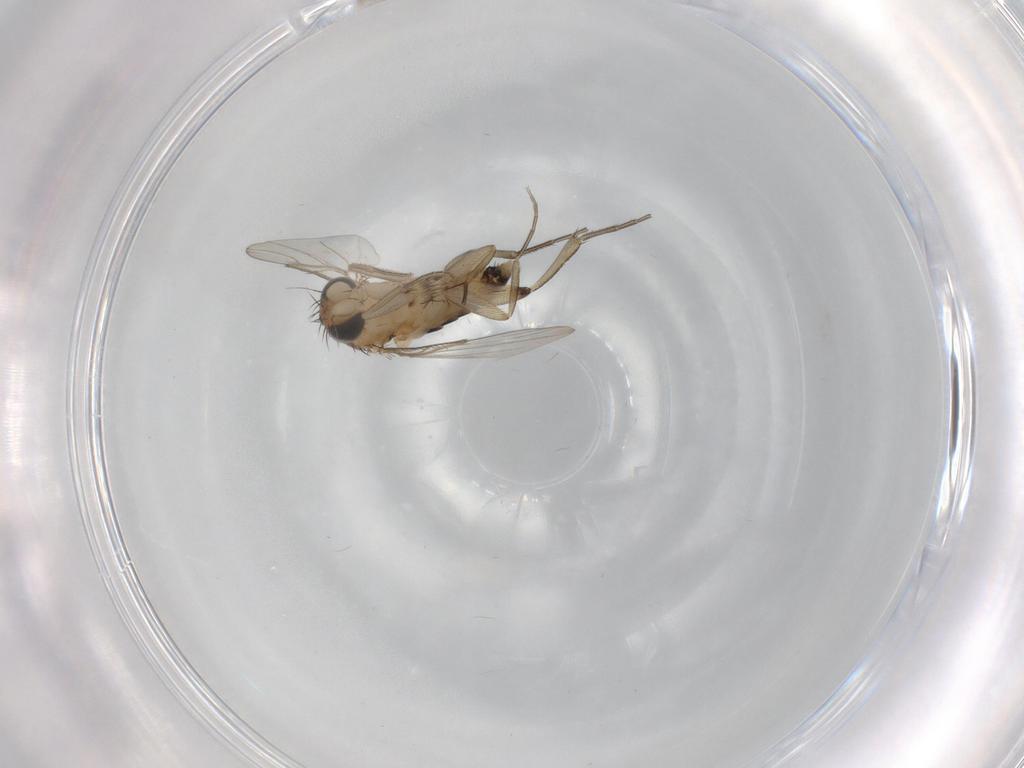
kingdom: Animalia
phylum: Arthropoda
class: Insecta
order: Diptera
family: Phoridae
